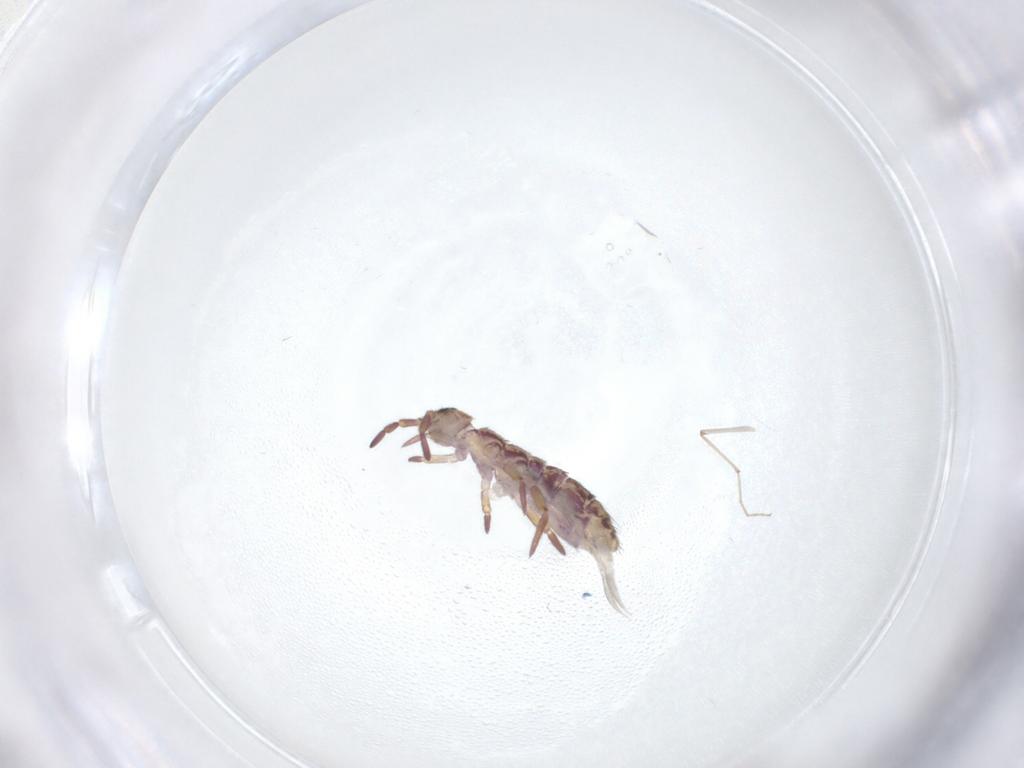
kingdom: Animalia
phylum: Arthropoda
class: Collembola
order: Entomobryomorpha
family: Isotomidae
